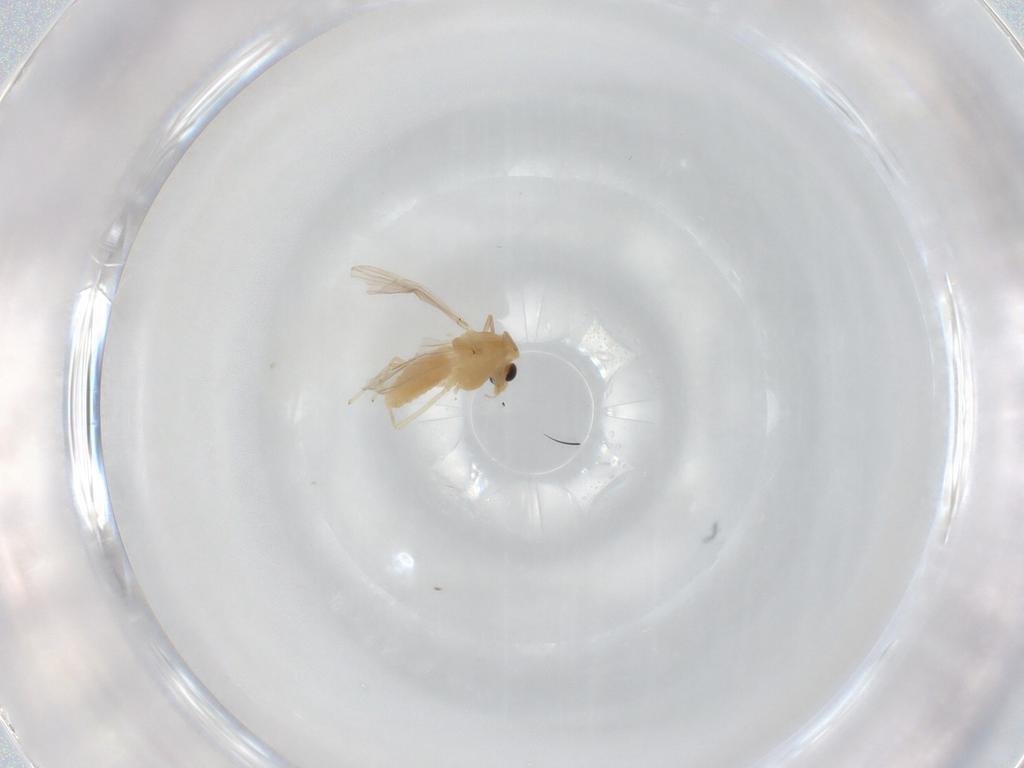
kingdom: Animalia
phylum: Arthropoda
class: Insecta
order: Diptera
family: Chironomidae
